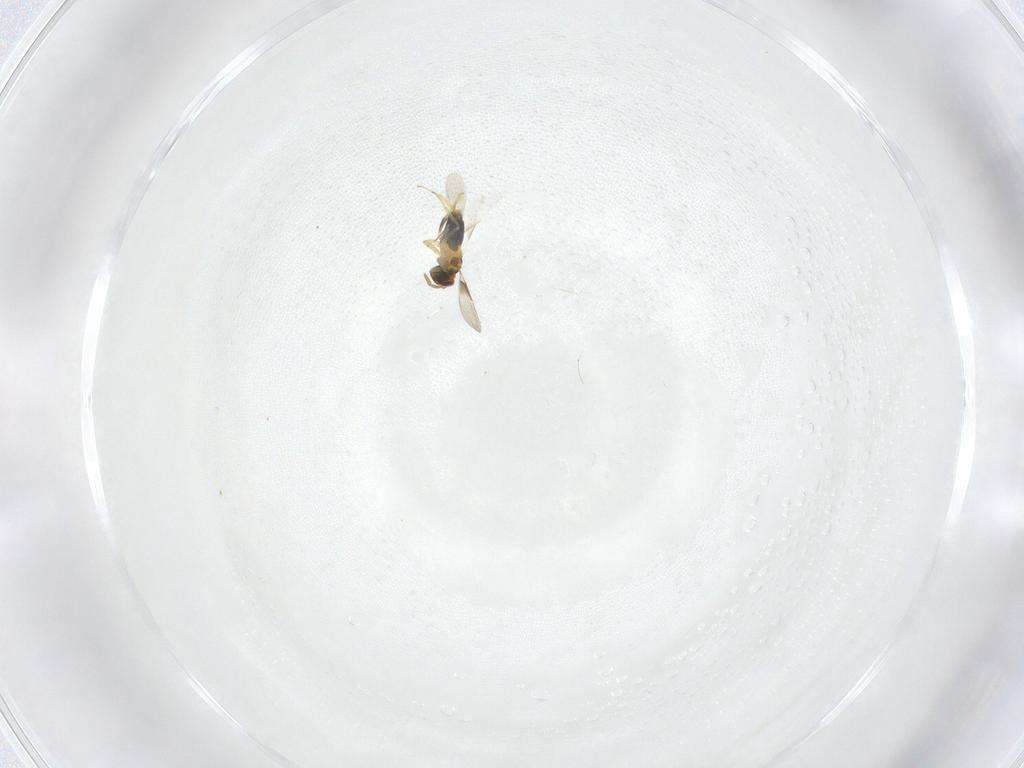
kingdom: Animalia
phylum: Arthropoda
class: Insecta
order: Hymenoptera
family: Aphelinidae
